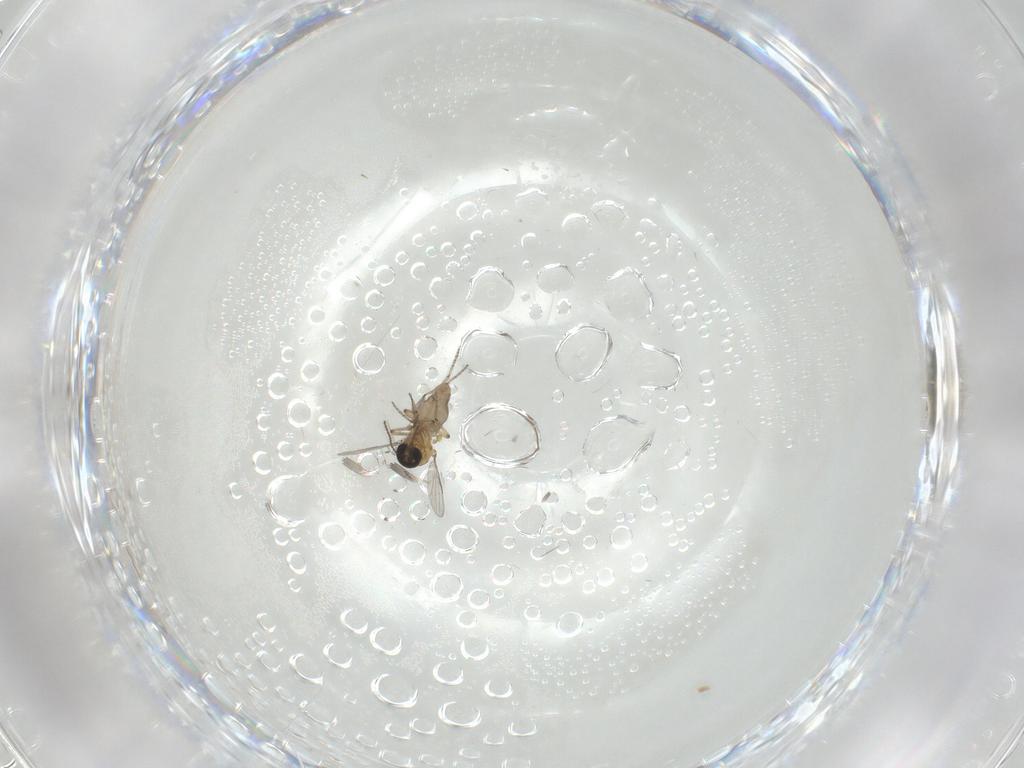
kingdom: Animalia
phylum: Arthropoda
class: Insecta
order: Diptera
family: Ceratopogonidae
